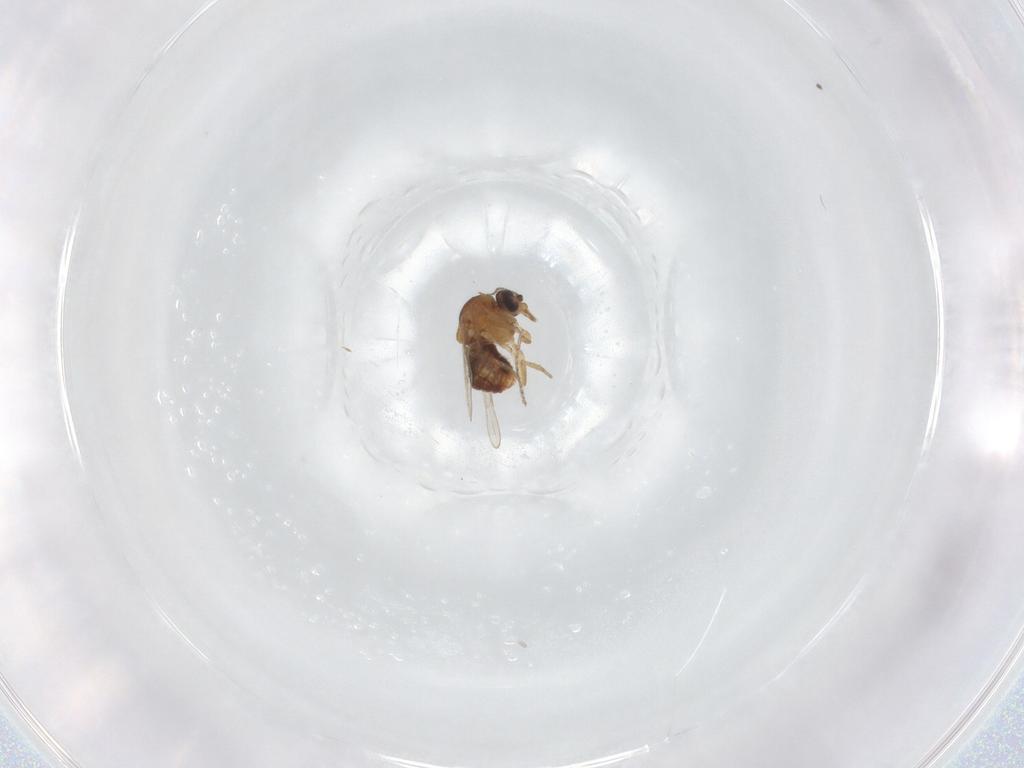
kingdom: Animalia
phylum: Arthropoda
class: Insecta
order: Diptera
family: Ceratopogonidae
